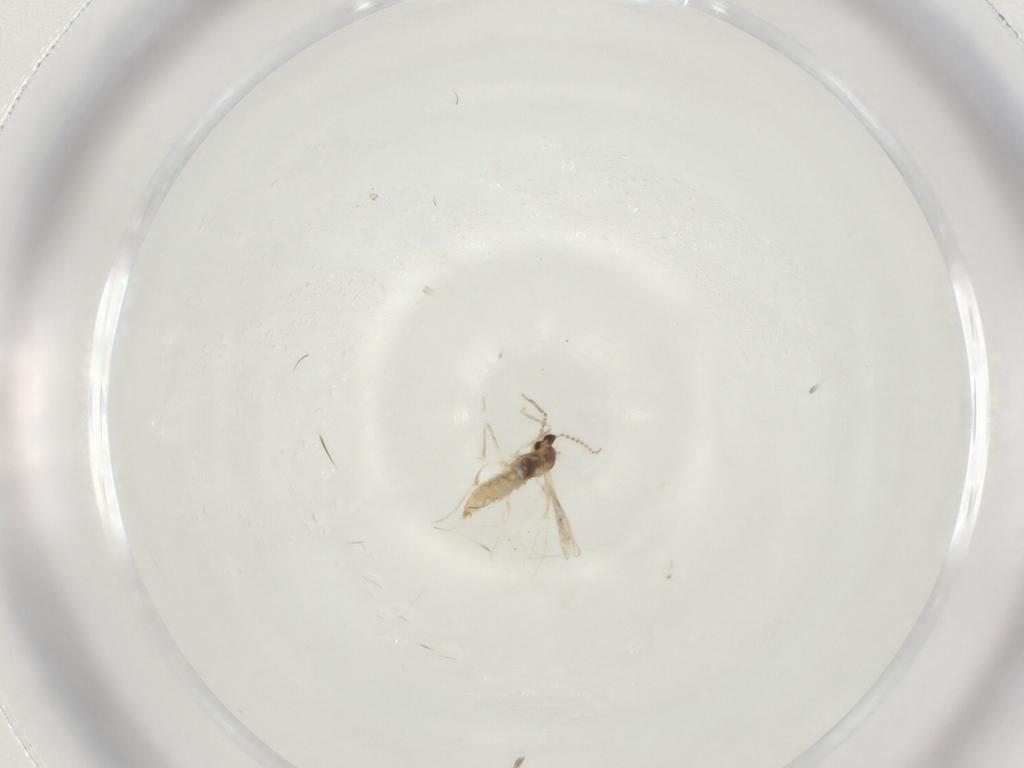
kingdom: Animalia
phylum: Arthropoda
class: Insecta
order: Diptera
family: Cecidomyiidae
